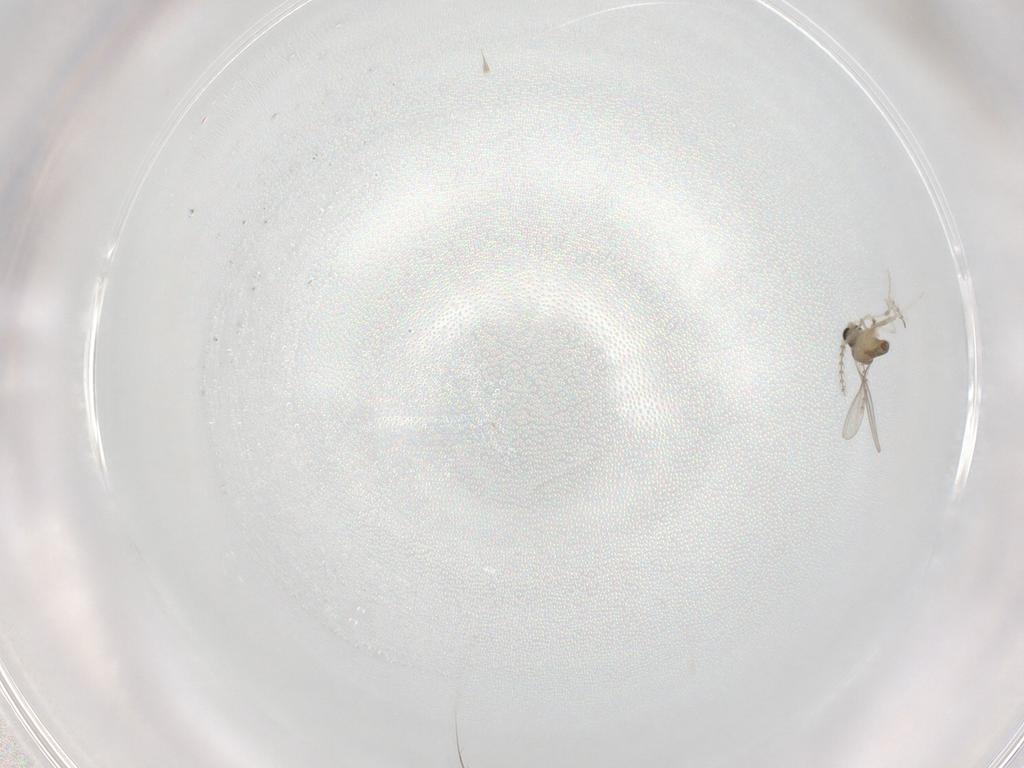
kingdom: Animalia
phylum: Arthropoda
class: Insecta
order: Diptera
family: Cecidomyiidae
